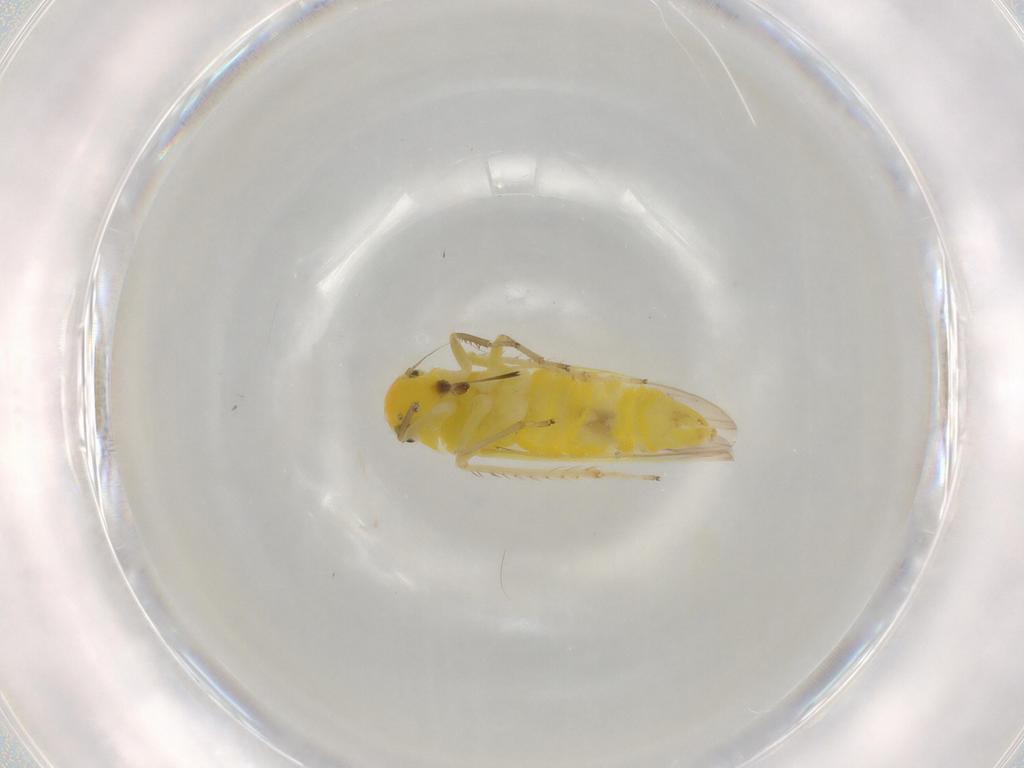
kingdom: Animalia
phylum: Arthropoda
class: Insecta
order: Hemiptera
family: Cicadellidae
